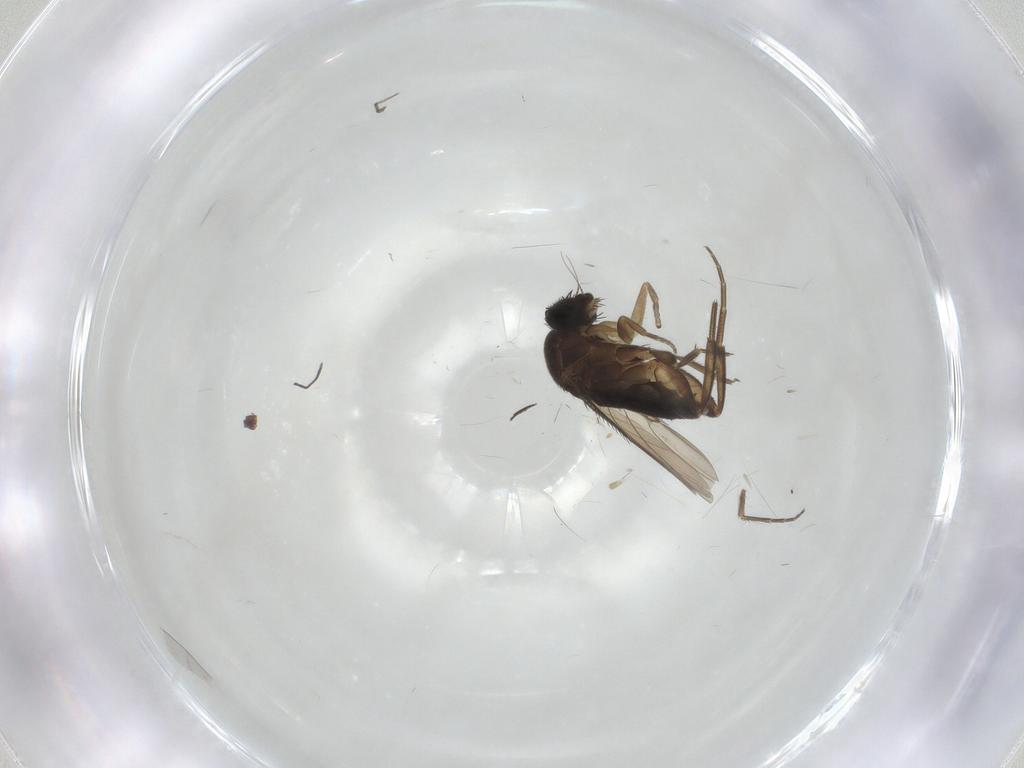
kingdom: Animalia
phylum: Arthropoda
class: Insecta
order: Diptera
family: Phoridae
